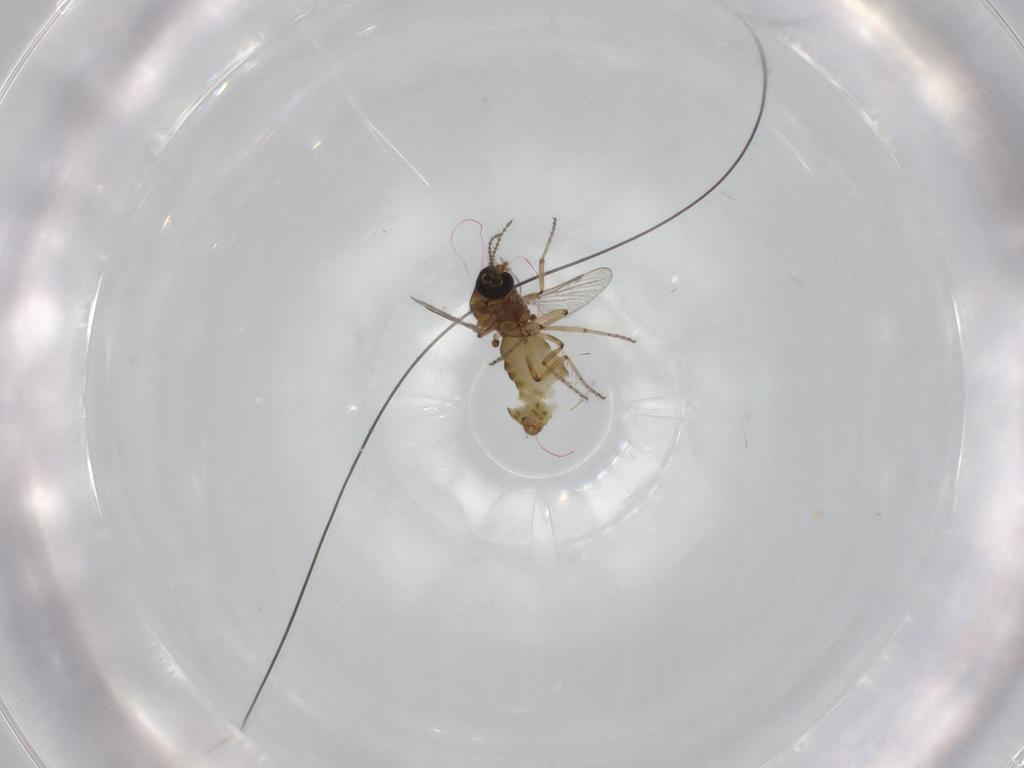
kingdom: Animalia
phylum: Arthropoda
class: Insecta
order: Diptera
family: Ceratopogonidae
